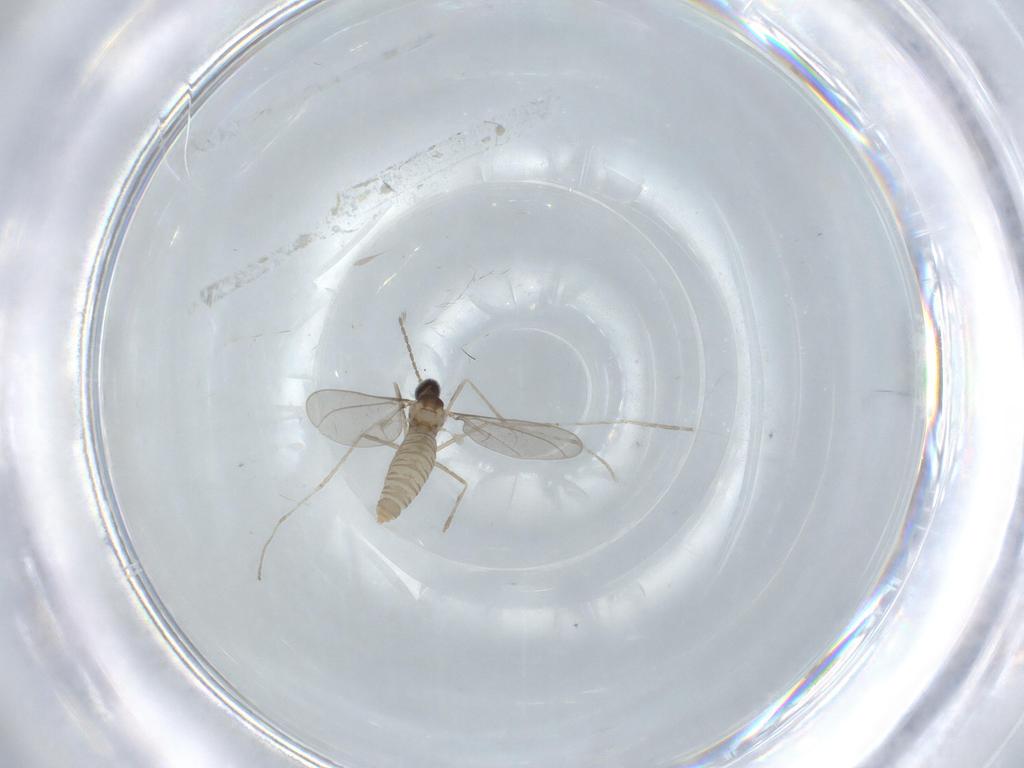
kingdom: Animalia
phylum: Arthropoda
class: Insecta
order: Diptera
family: Cecidomyiidae
